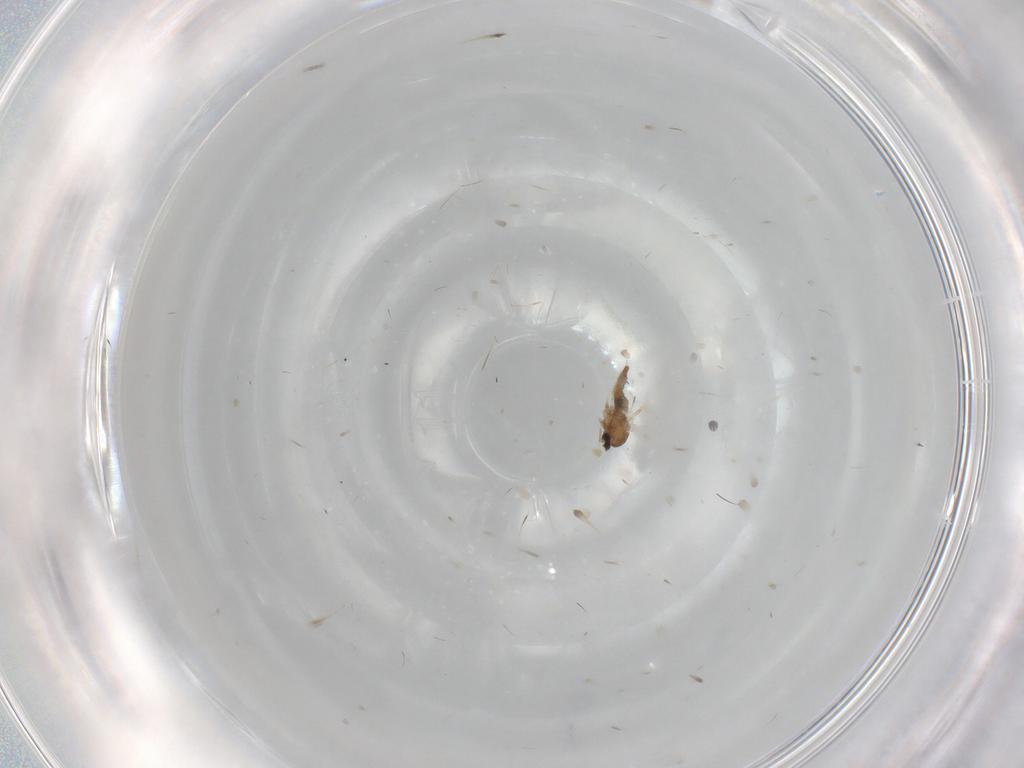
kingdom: Animalia
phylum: Arthropoda
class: Insecta
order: Diptera
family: Cecidomyiidae
